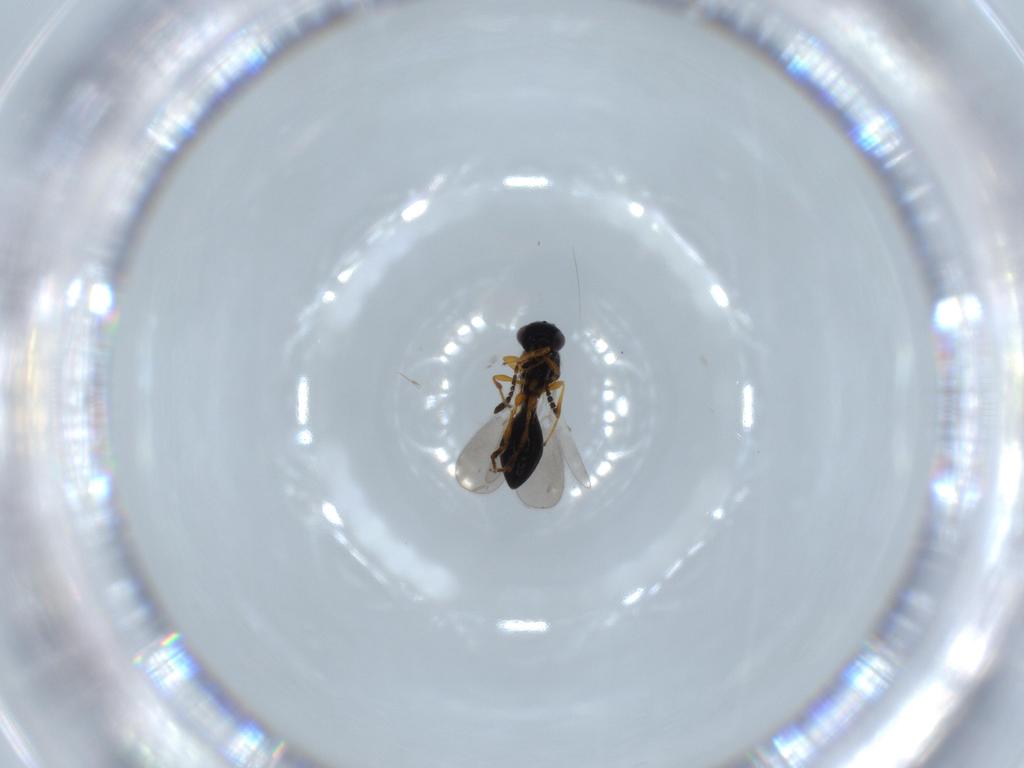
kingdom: Animalia
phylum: Arthropoda
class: Insecta
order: Hymenoptera
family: Platygastridae
